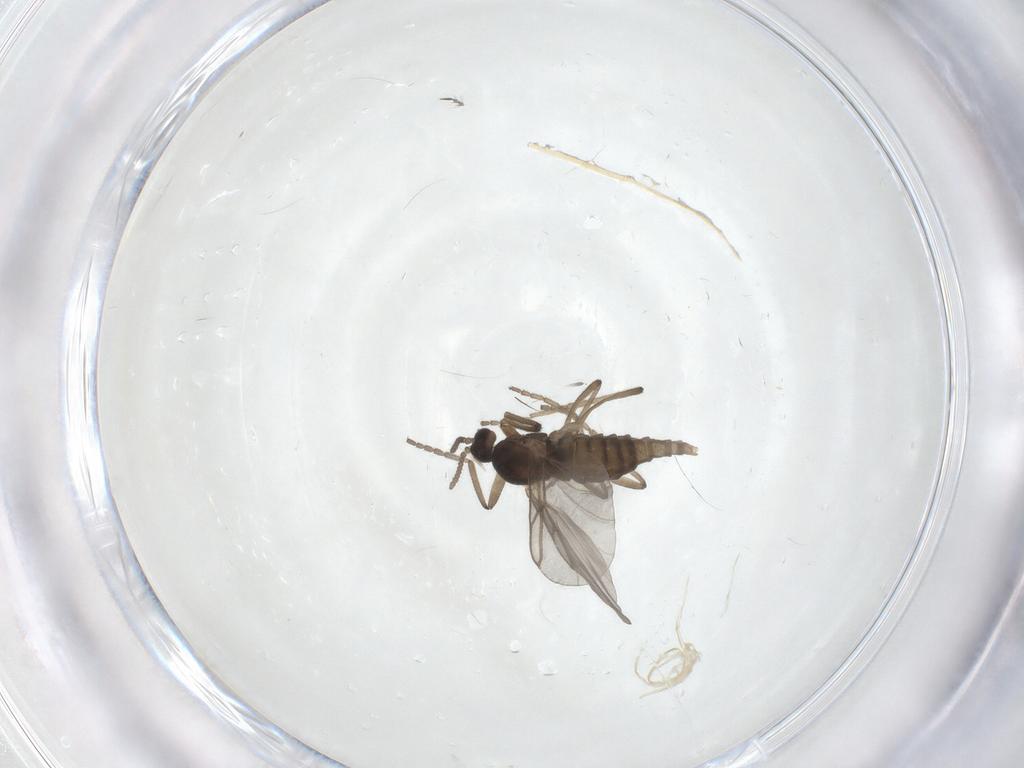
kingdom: Animalia
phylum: Arthropoda
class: Insecta
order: Diptera
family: Cecidomyiidae
